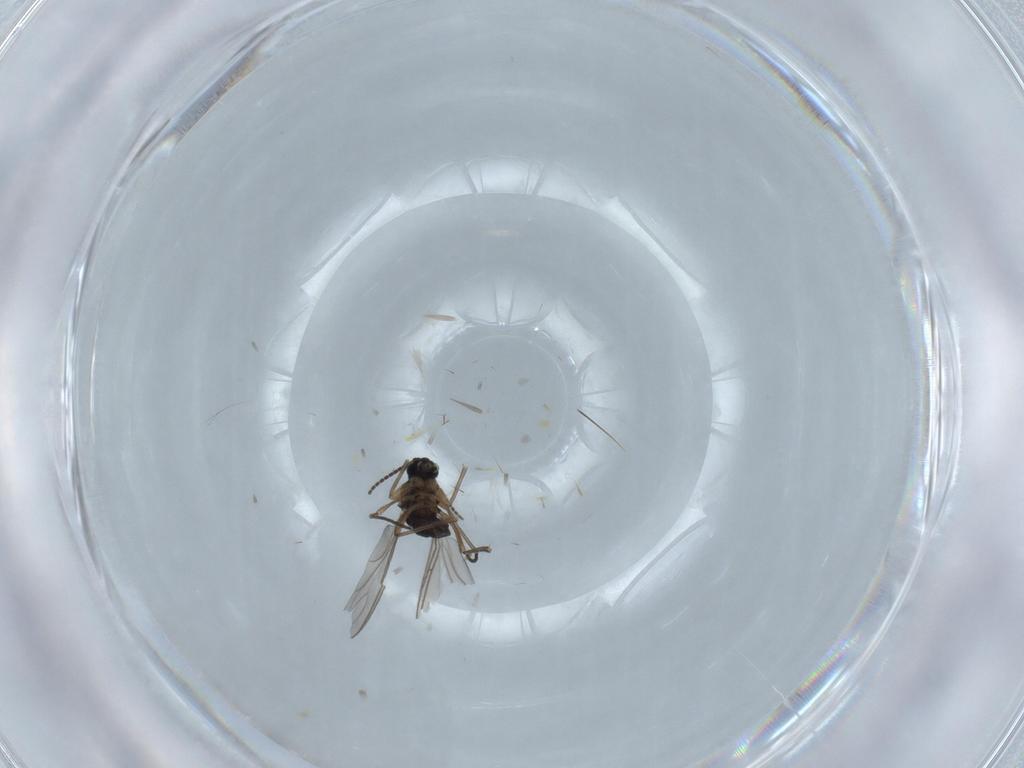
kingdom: Animalia
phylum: Arthropoda
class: Insecta
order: Diptera
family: Sciaridae
